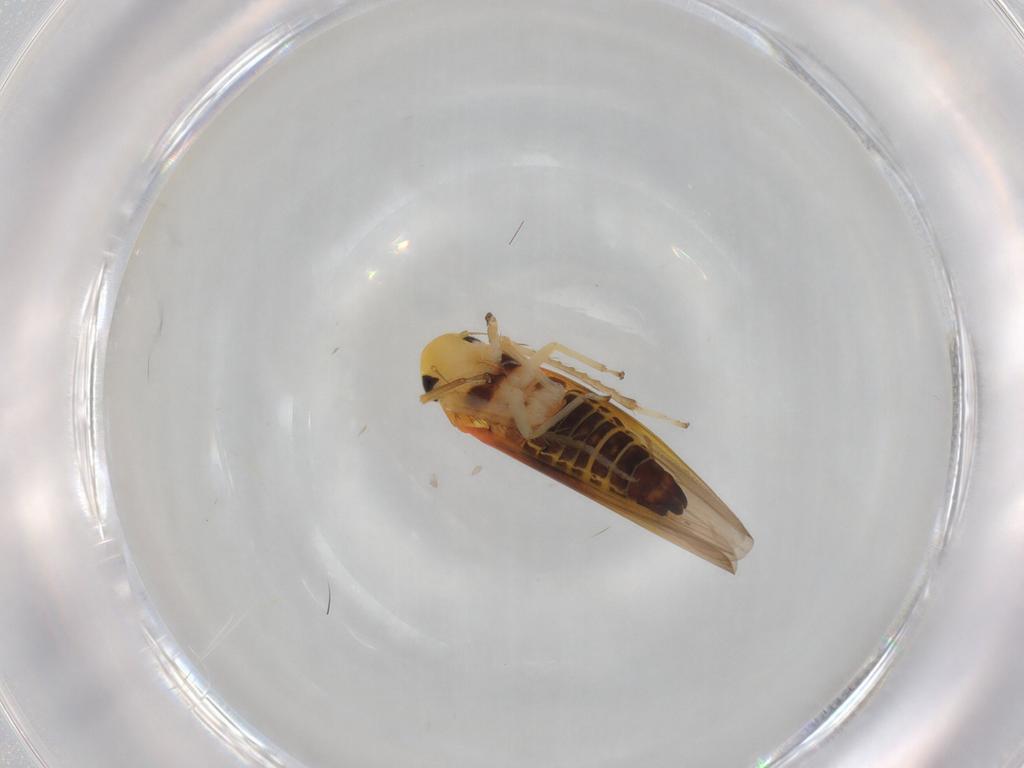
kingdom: Animalia
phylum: Arthropoda
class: Insecta
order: Hemiptera
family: Cicadellidae
